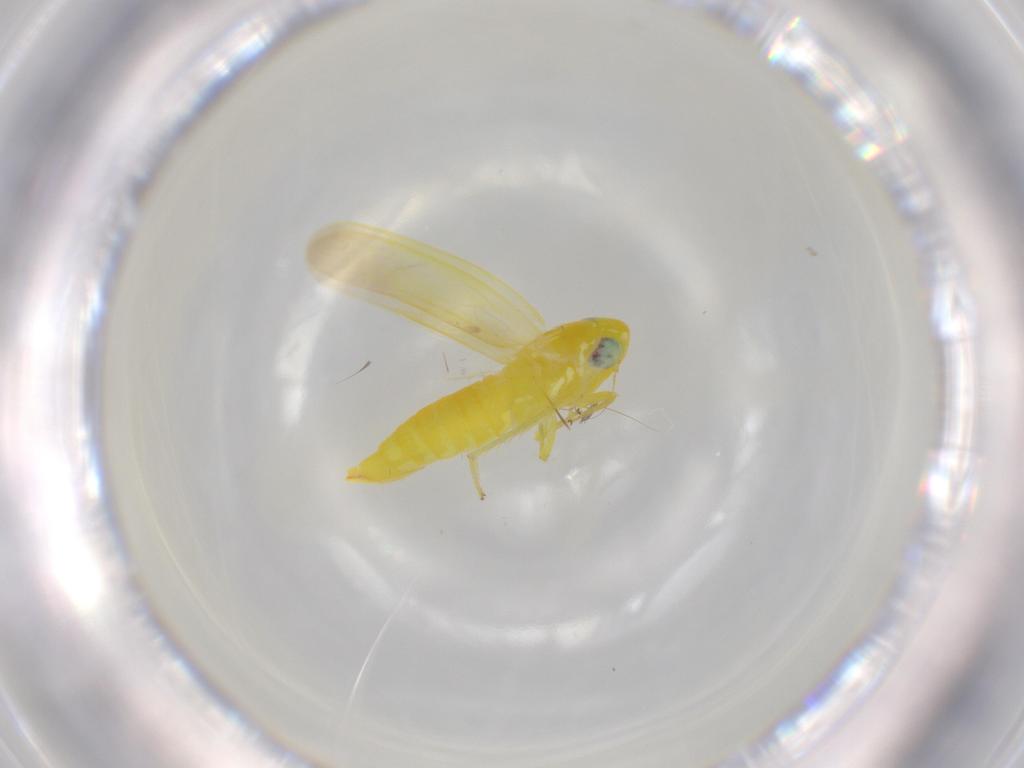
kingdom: Animalia
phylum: Arthropoda
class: Insecta
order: Hemiptera
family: Cicadellidae
